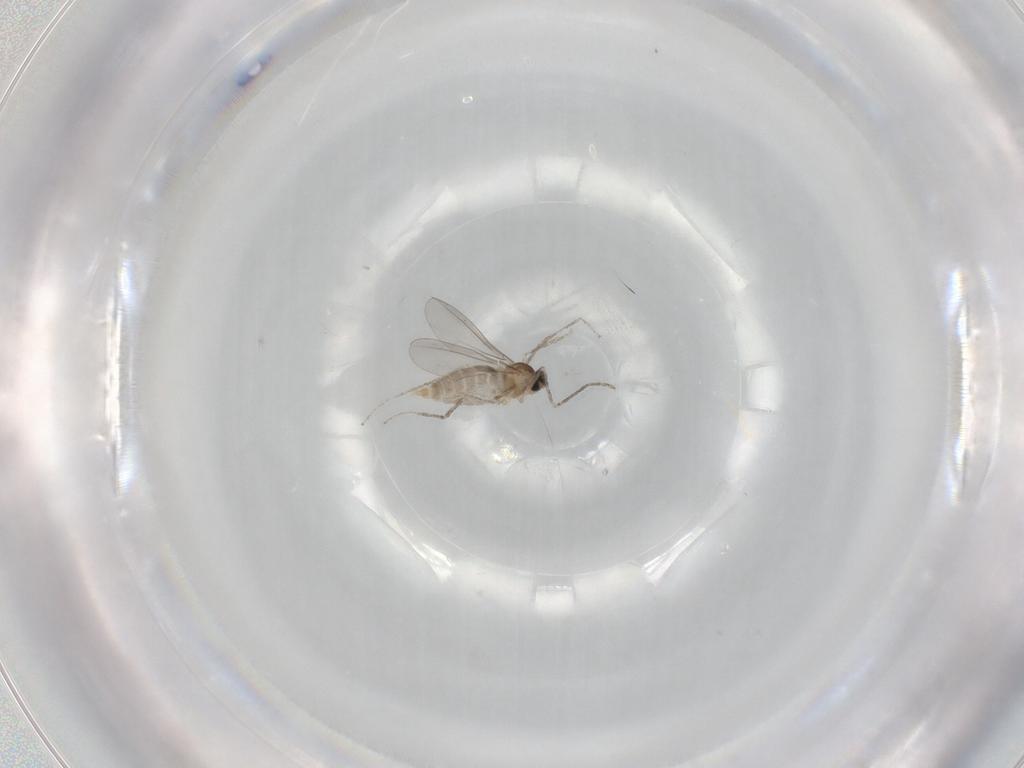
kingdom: Animalia
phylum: Arthropoda
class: Insecta
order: Diptera
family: Cecidomyiidae
